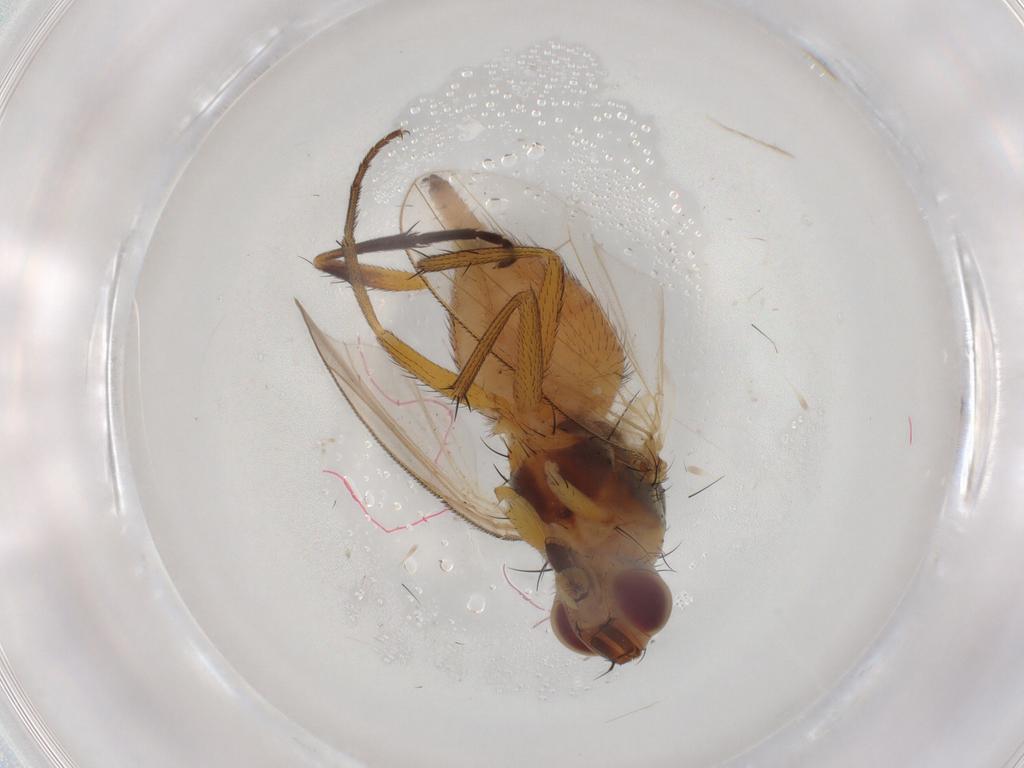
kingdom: Animalia
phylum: Arthropoda
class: Insecta
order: Diptera
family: Muscidae
